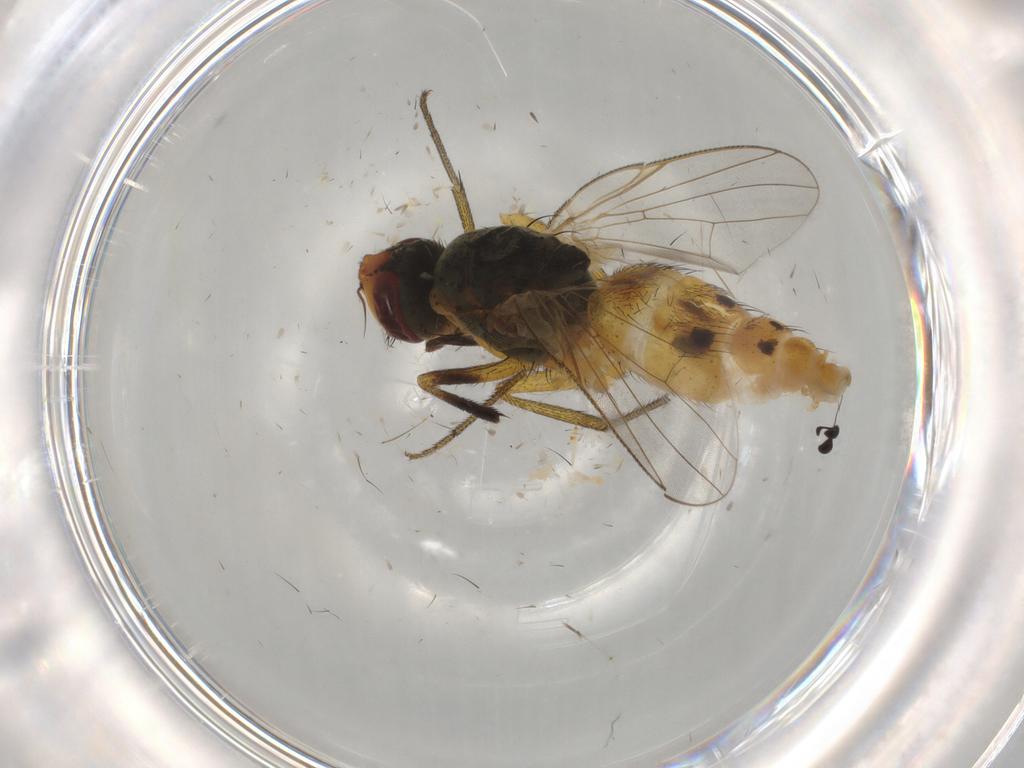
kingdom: Animalia
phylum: Arthropoda
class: Insecta
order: Diptera
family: Muscidae
